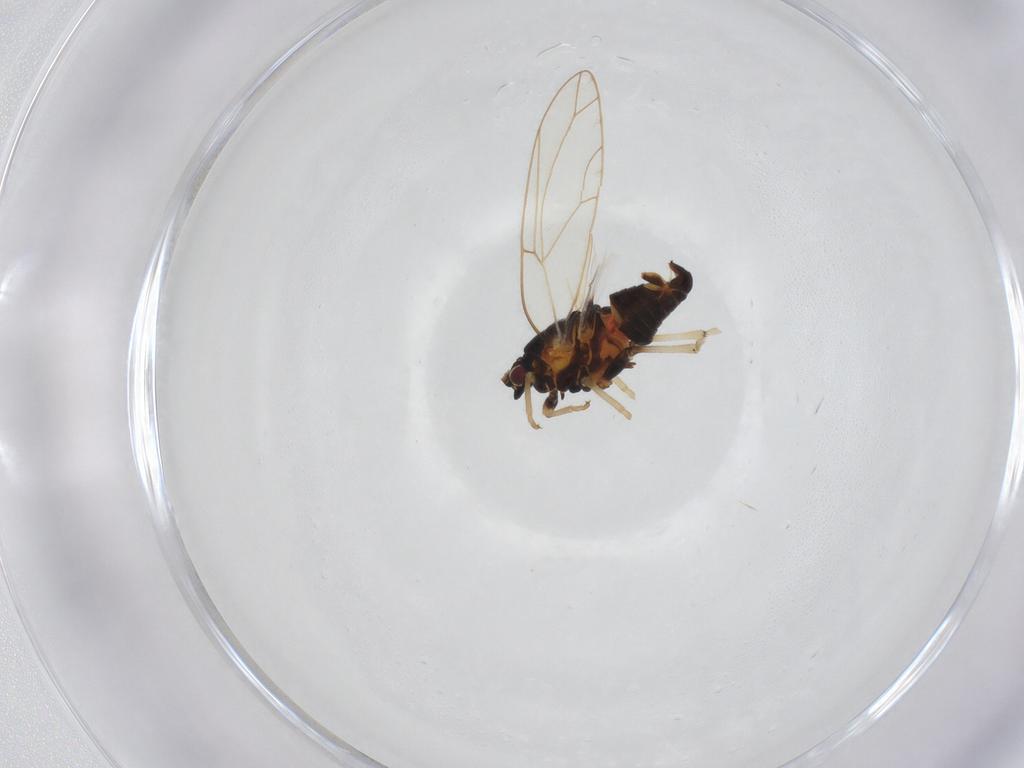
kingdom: Animalia
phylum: Arthropoda
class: Insecta
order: Hemiptera
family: Triozidae
